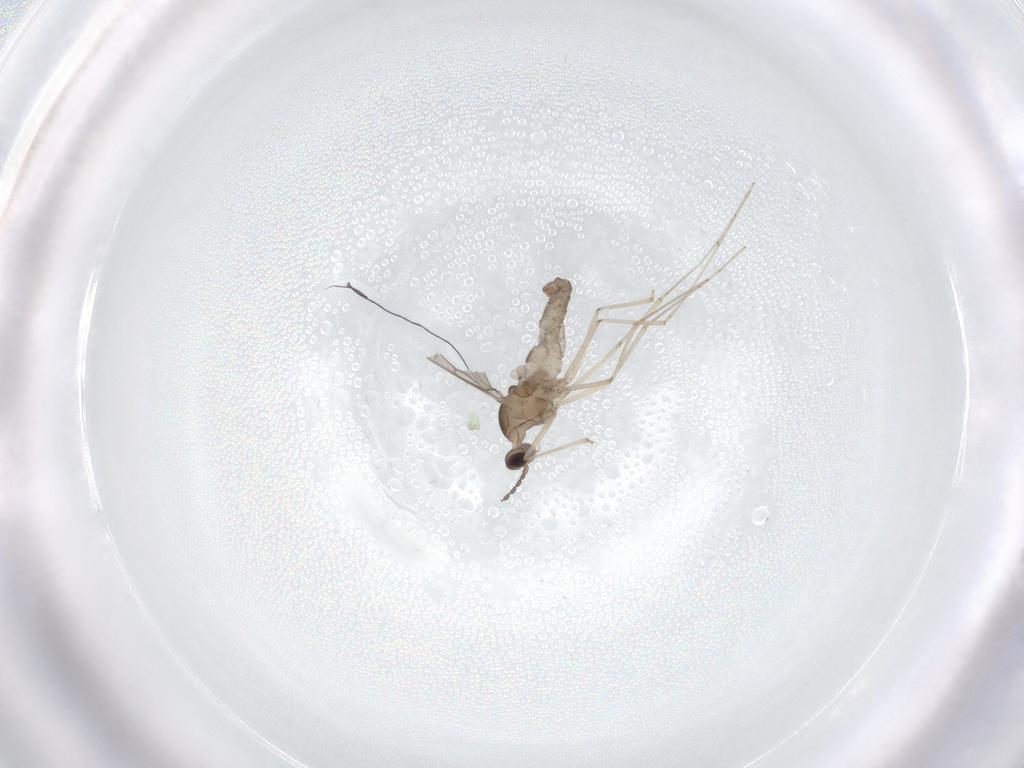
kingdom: Animalia
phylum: Arthropoda
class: Insecta
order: Diptera
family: Cecidomyiidae
